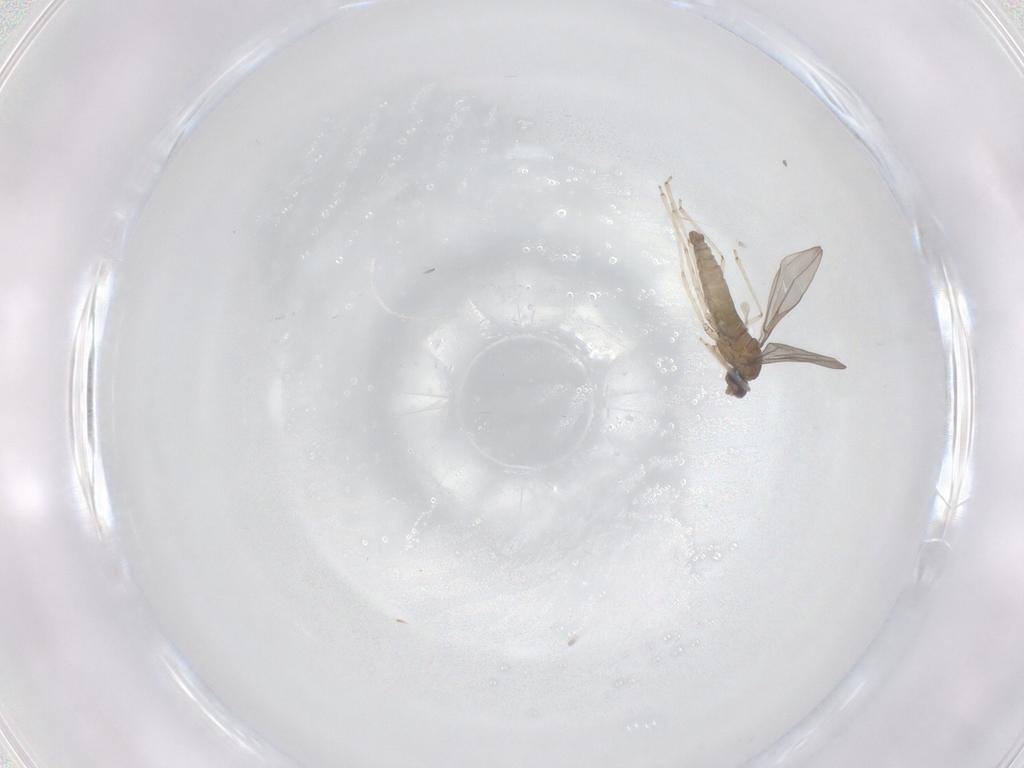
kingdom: Animalia
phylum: Arthropoda
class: Insecta
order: Diptera
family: Cecidomyiidae
